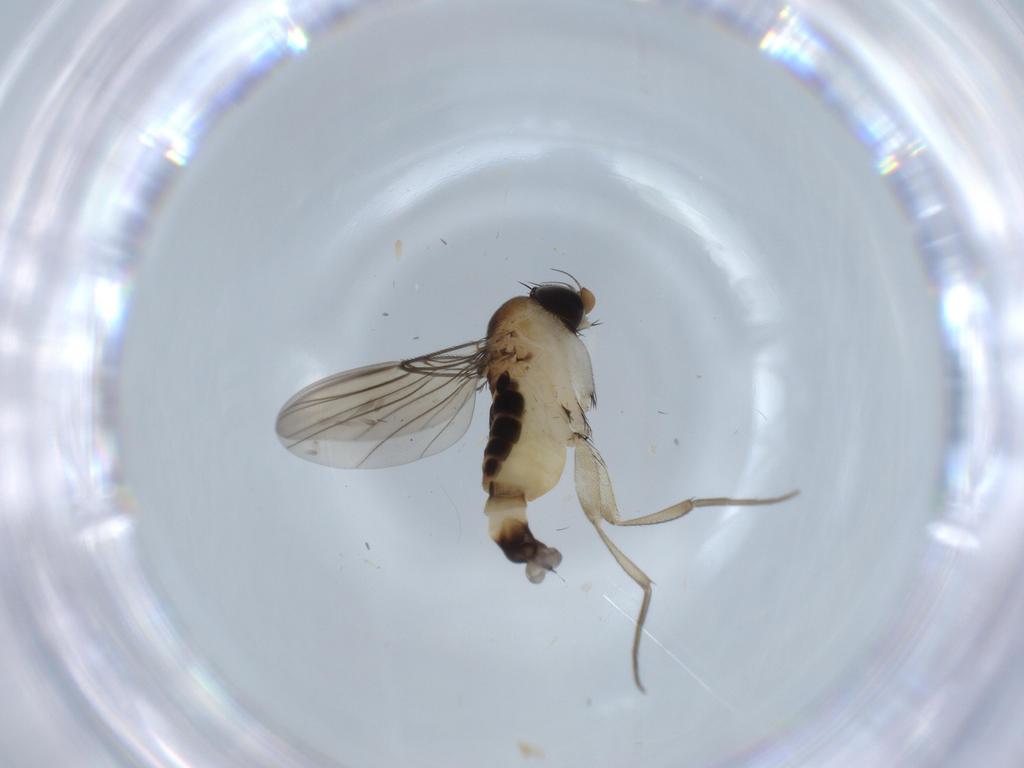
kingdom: Animalia
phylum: Arthropoda
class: Insecta
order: Diptera
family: Phoridae
